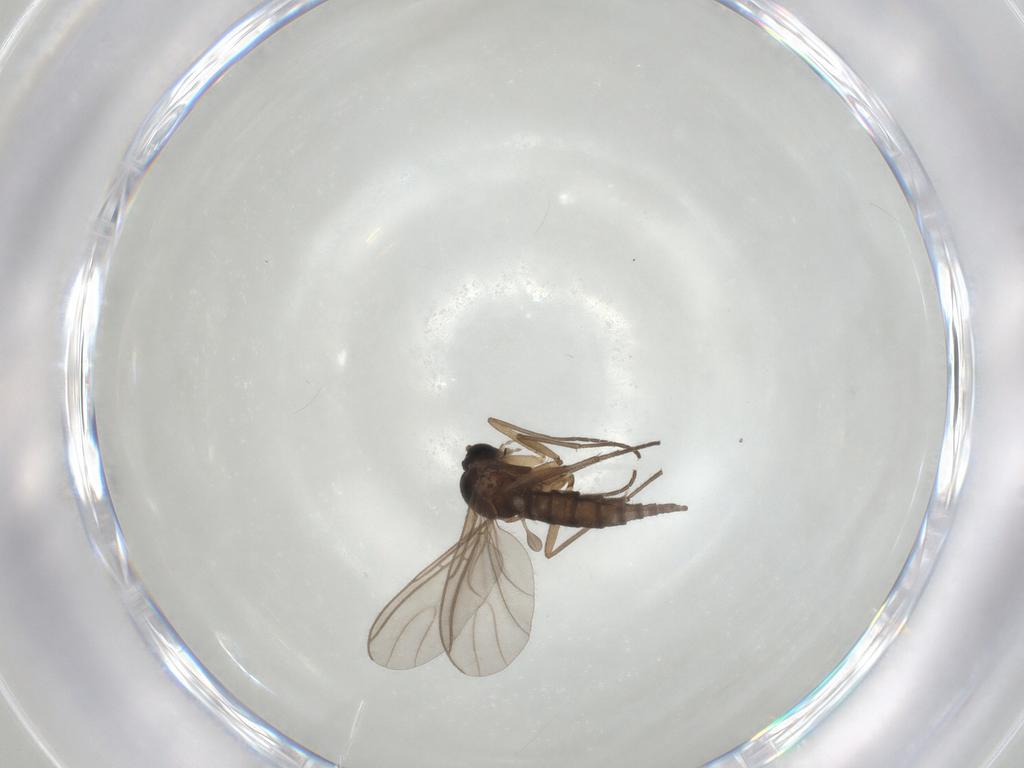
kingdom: Animalia
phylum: Arthropoda
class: Insecta
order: Diptera
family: Sciaridae
